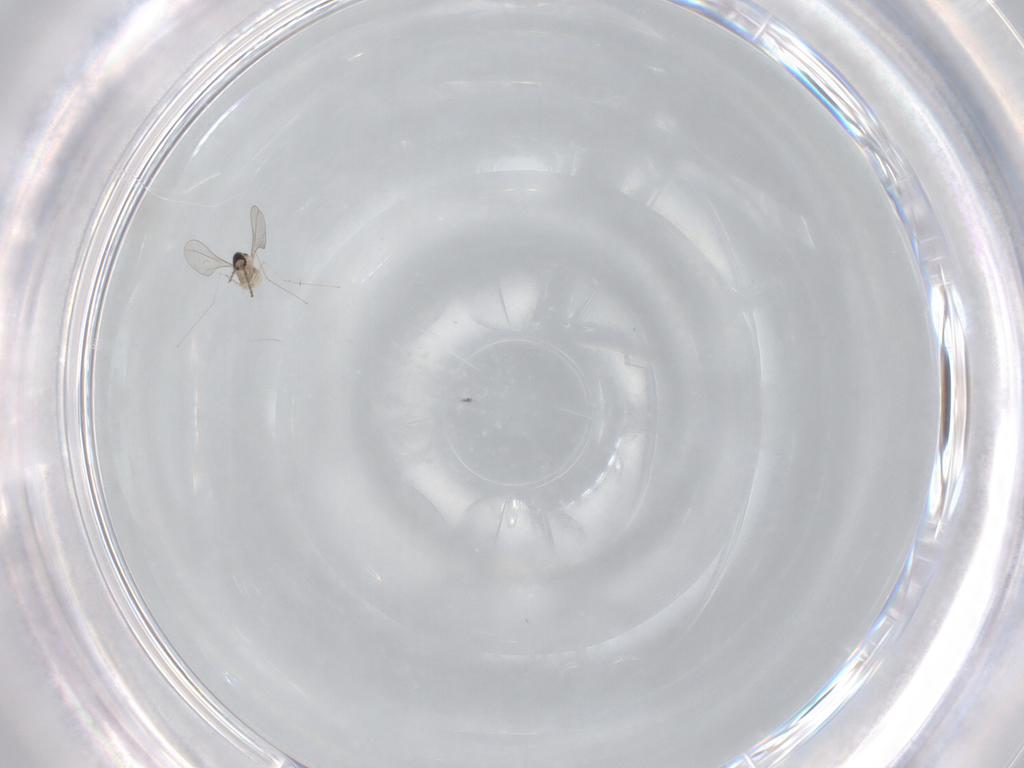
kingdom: Animalia
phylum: Arthropoda
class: Insecta
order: Diptera
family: Cecidomyiidae
